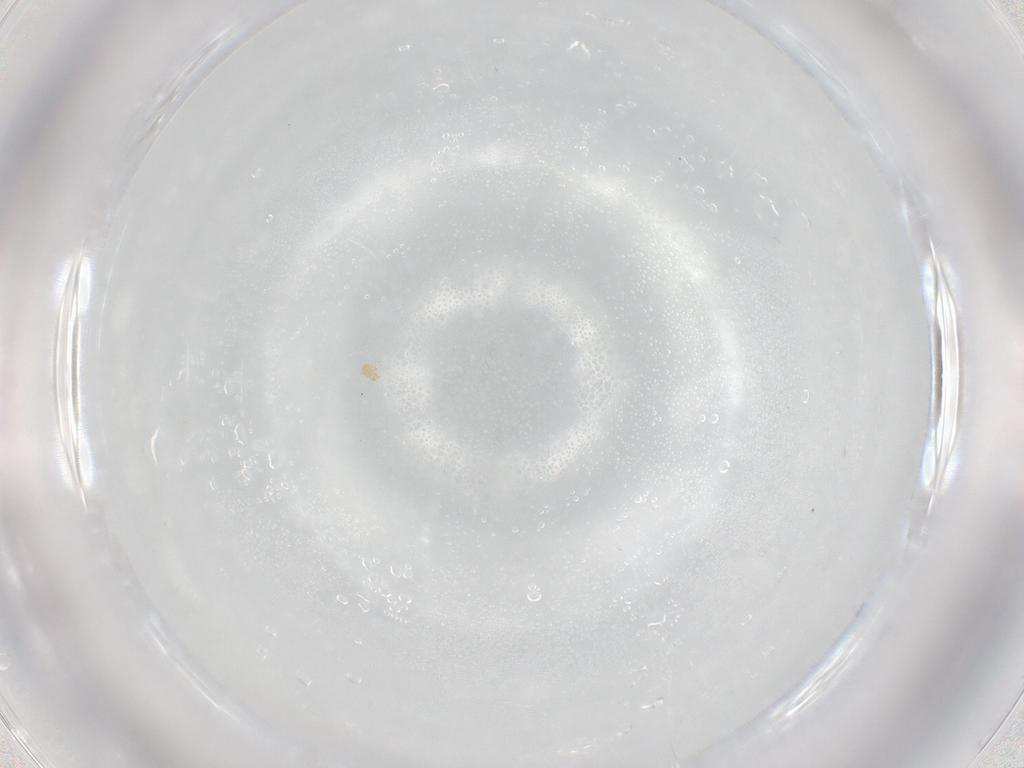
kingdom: Animalia
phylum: Arthropoda
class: Arachnida
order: Trombidiformes
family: Pygmephoridae
